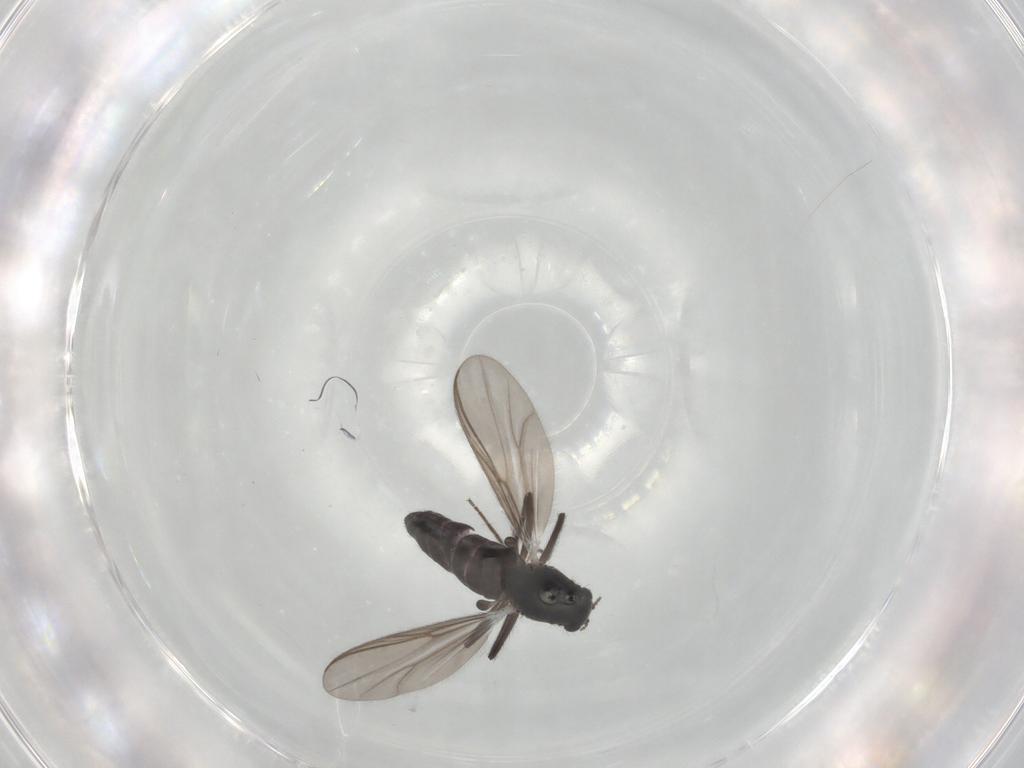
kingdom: Animalia
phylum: Arthropoda
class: Insecta
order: Diptera
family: Chironomidae
